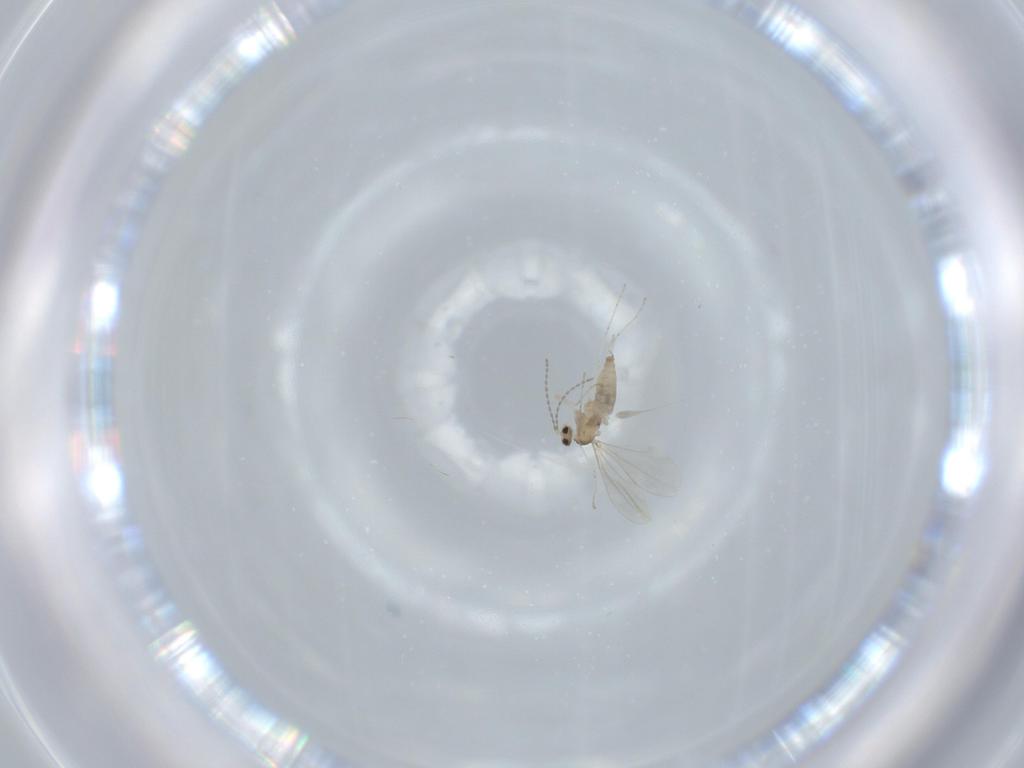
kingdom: Animalia
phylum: Arthropoda
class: Insecta
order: Diptera
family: Cecidomyiidae
